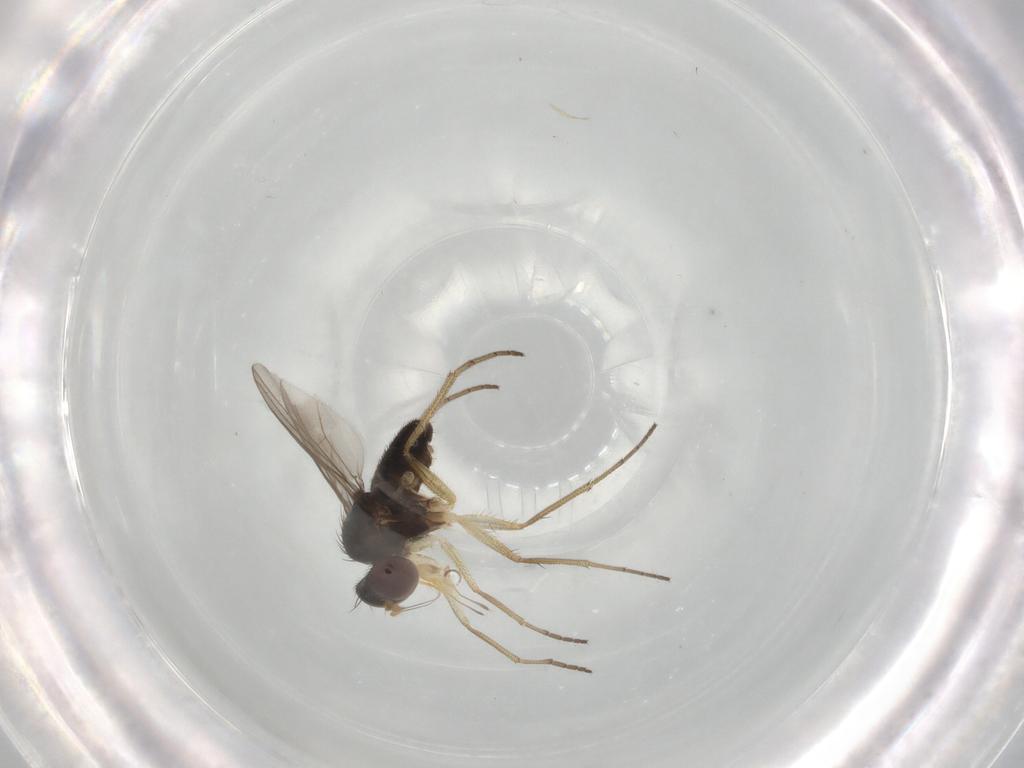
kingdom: Animalia
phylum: Arthropoda
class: Insecta
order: Diptera
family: Dolichopodidae
